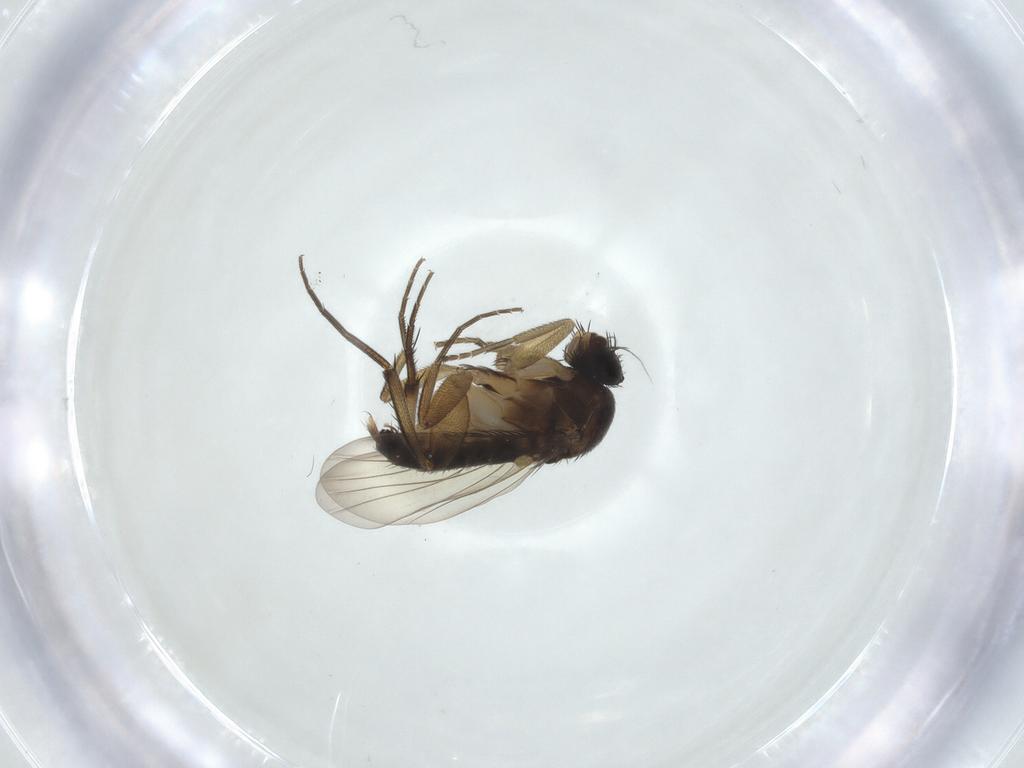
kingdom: Animalia
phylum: Arthropoda
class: Insecta
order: Diptera
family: Phoridae
